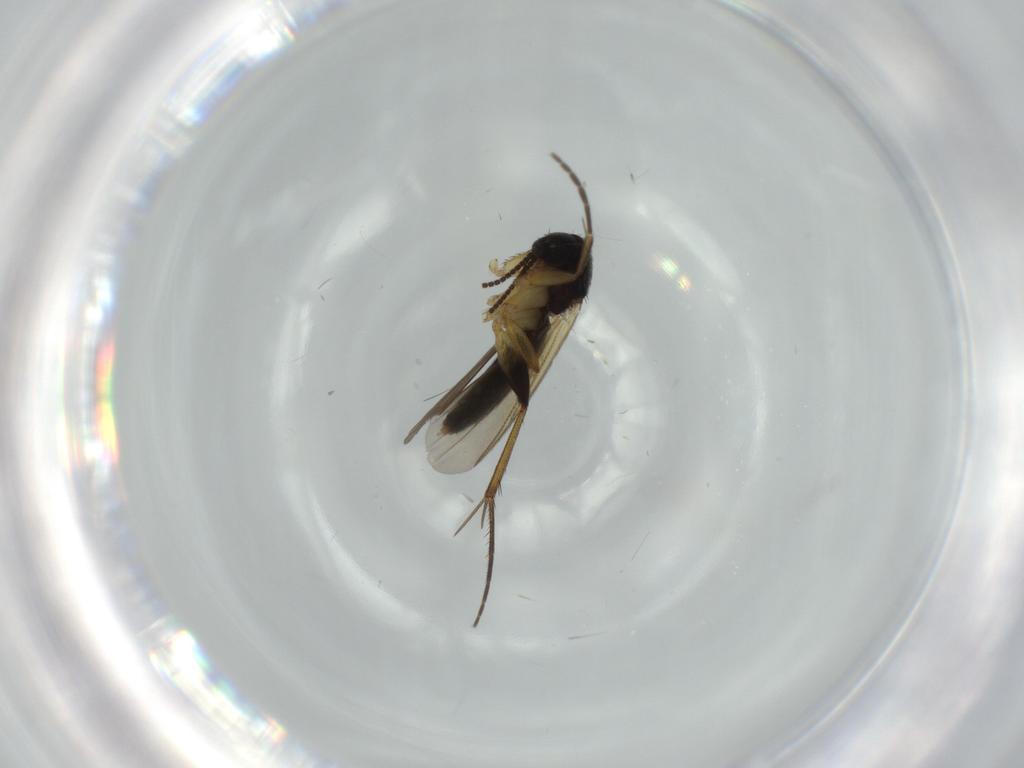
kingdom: Animalia
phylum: Arthropoda
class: Insecta
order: Diptera
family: Mycetophilidae
